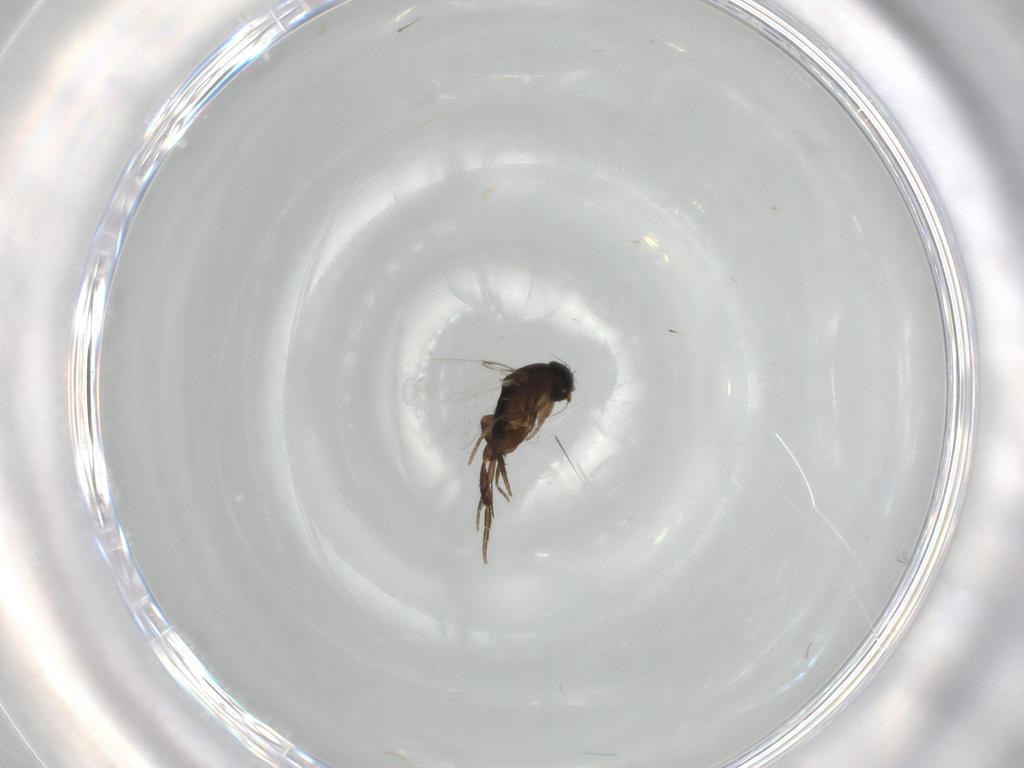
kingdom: Animalia
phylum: Arthropoda
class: Insecta
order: Diptera
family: Phoridae
